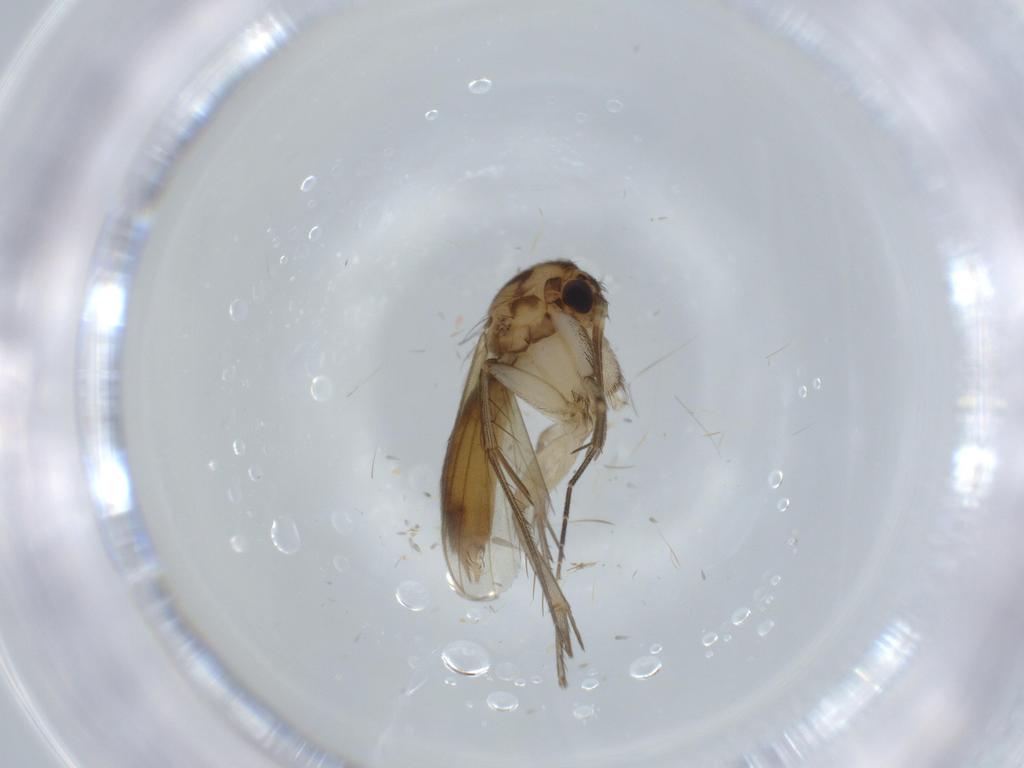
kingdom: Animalia
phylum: Arthropoda
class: Insecta
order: Diptera
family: Mycetophilidae
